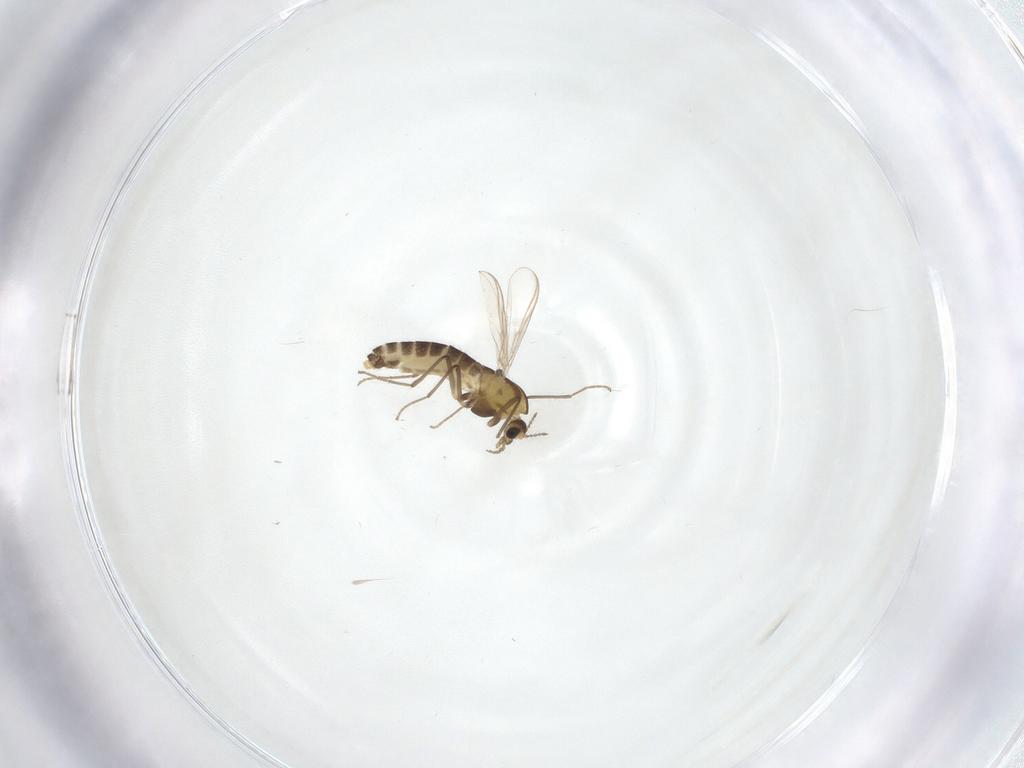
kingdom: Animalia
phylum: Arthropoda
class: Insecta
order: Diptera
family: Chironomidae
